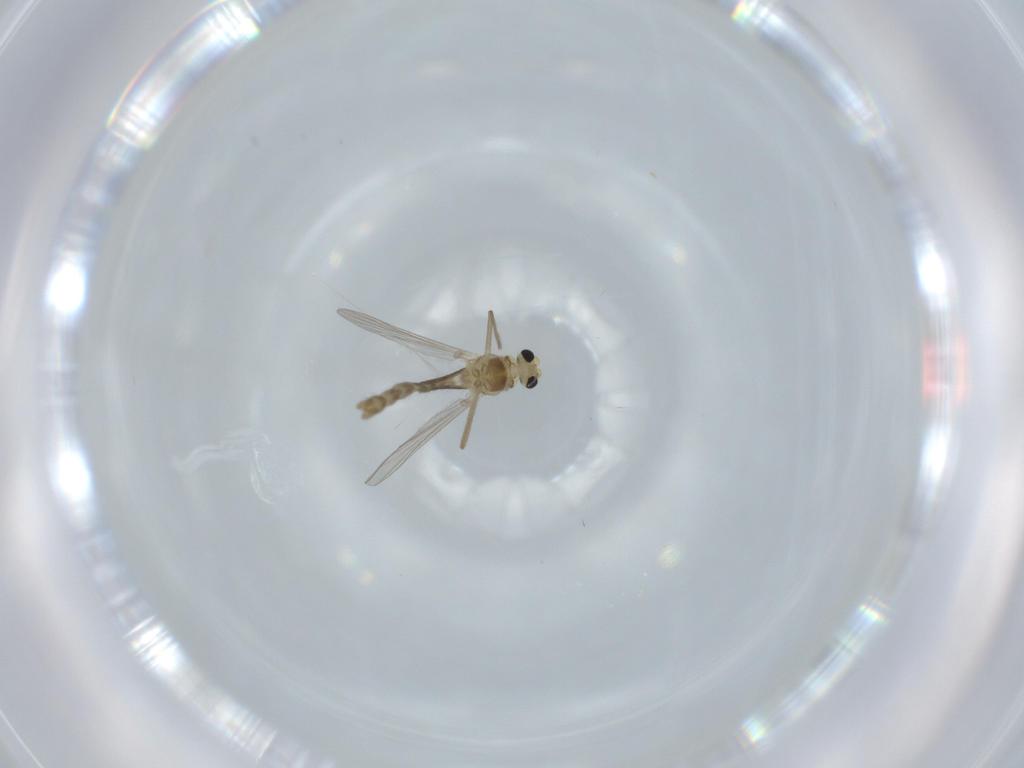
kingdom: Animalia
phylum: Arthropoda
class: Insecta
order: Diptera
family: Chironomidae
